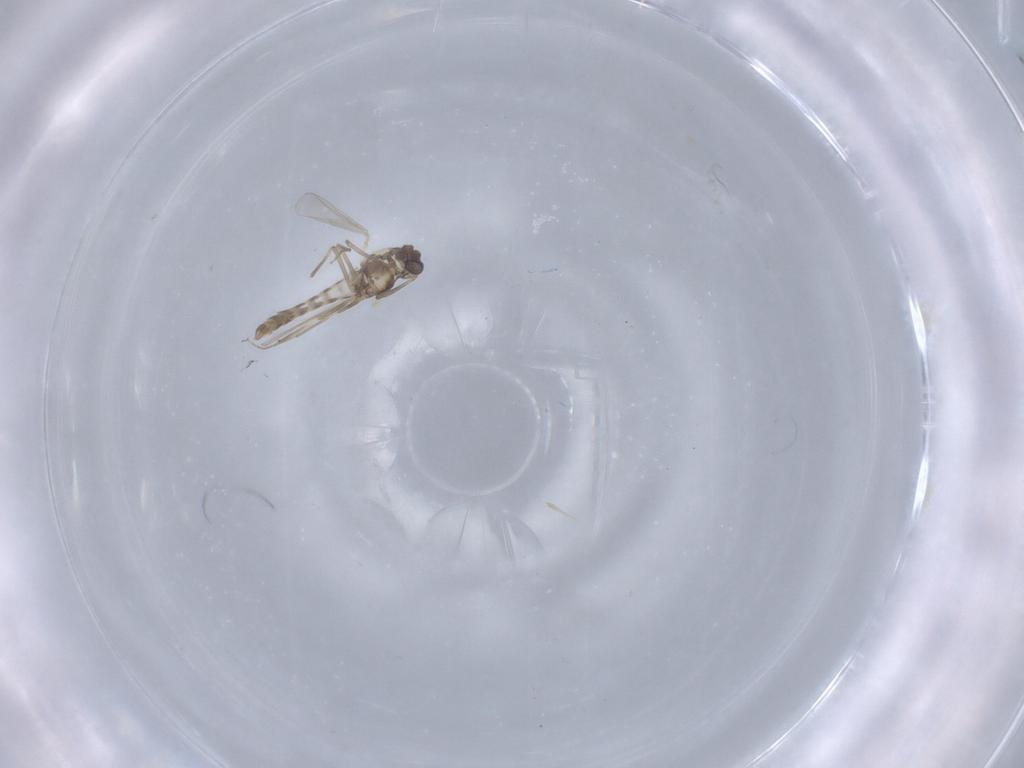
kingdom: Animalia
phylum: Arthropoda
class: Insecta
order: Diptera
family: Chironomidae
